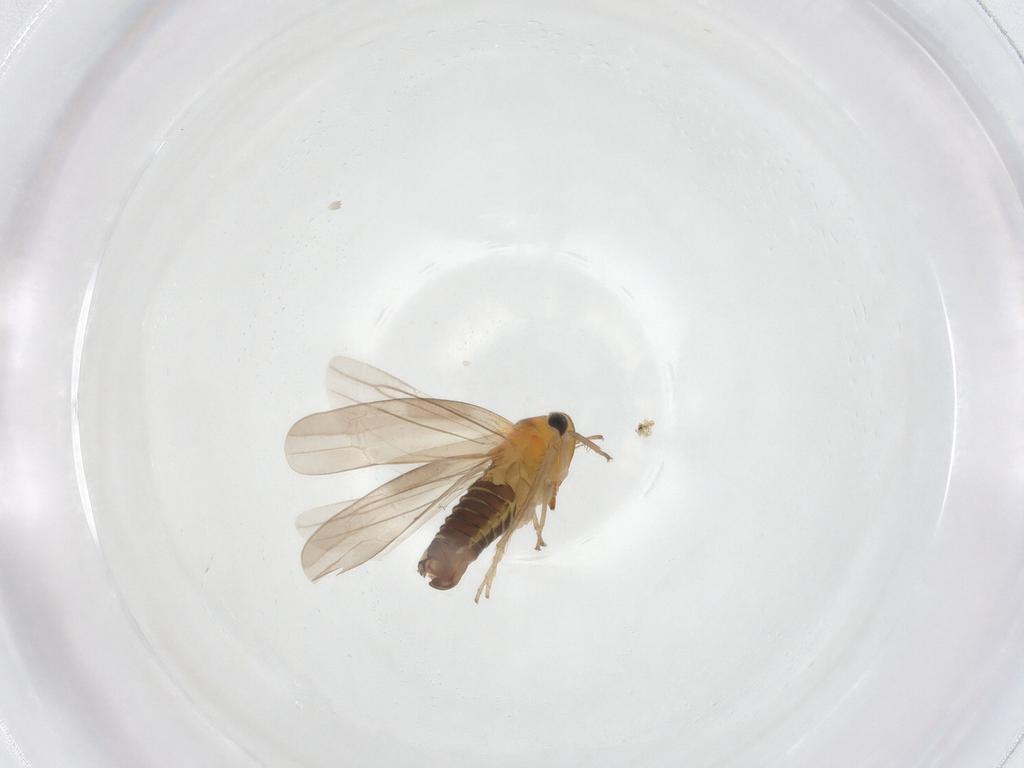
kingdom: Animalia
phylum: Arthropoda
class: Insecta
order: Hemiptera
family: Cicadellidae
